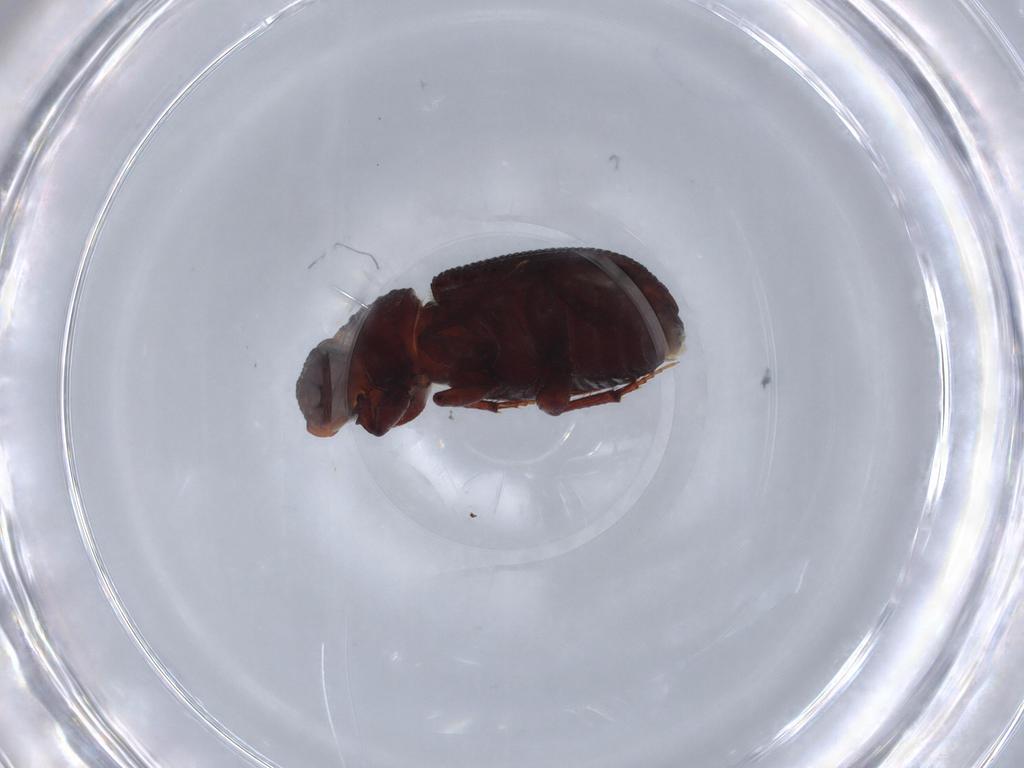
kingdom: Animalia
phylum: Arthropoda
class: Insecta
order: Coleoptera
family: Latridiidae
